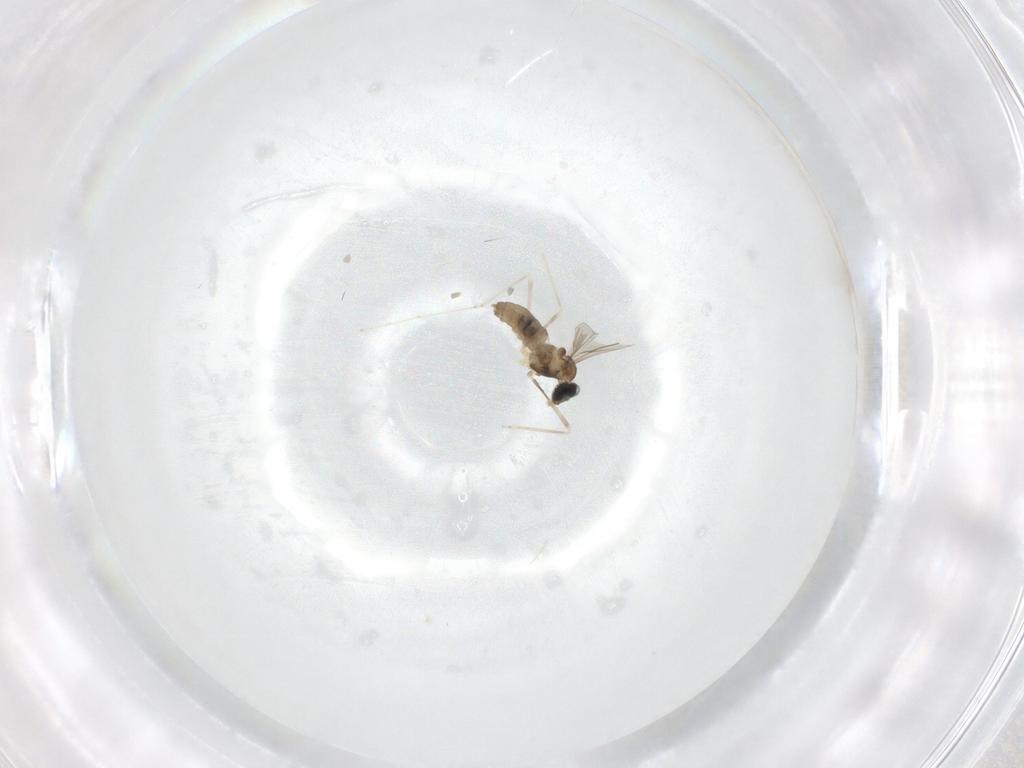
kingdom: Animalia
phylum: Arthropoda
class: Insecta
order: Diptera
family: Cecidomyiidae
